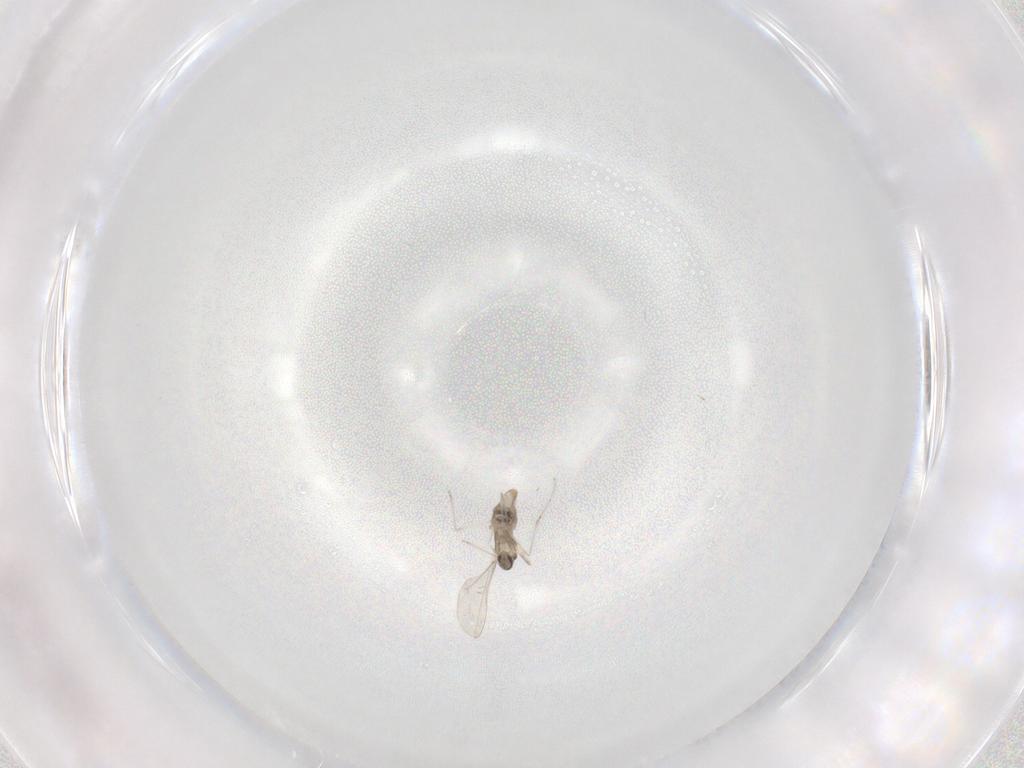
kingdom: Animalia
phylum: Arthropoda
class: Insecta
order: Diptera
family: Cecidomyiidae
